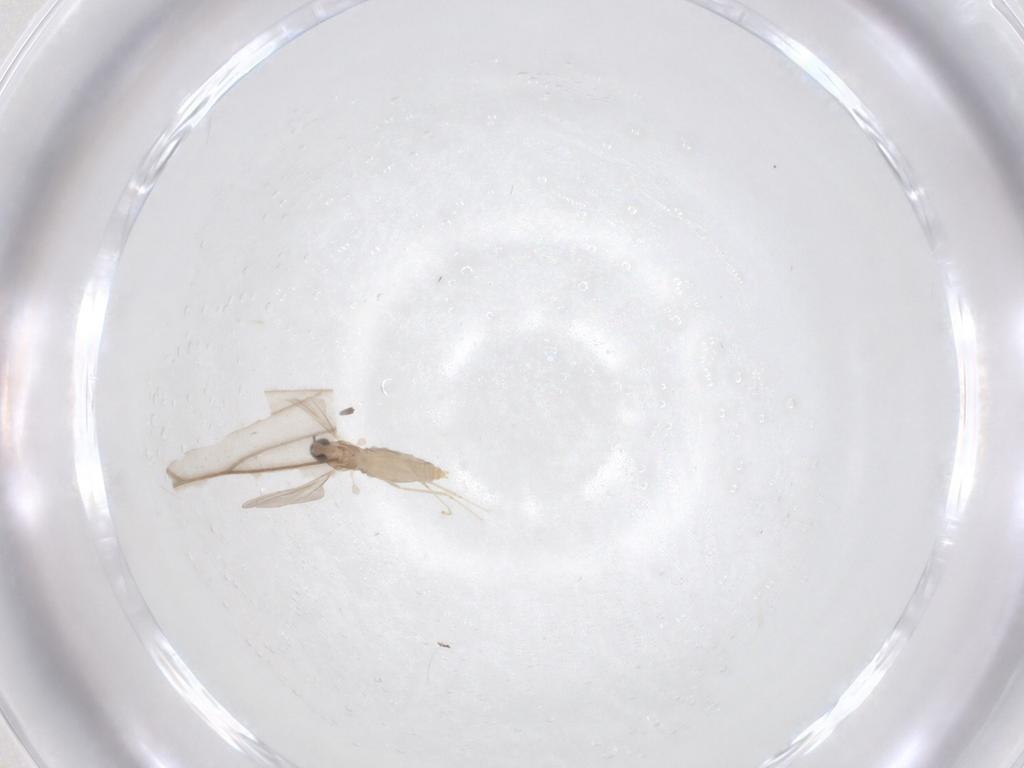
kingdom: Animalia
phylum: Arthropoda
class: Insecta
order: Diptera
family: Cecidomyiidae
